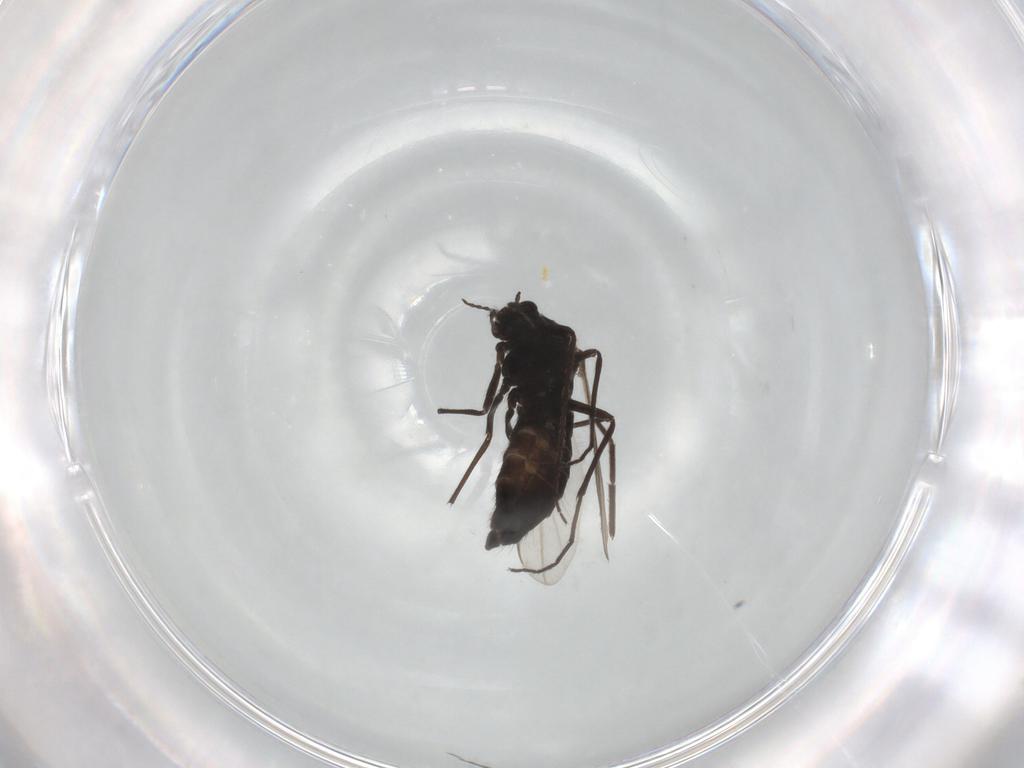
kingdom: Animalia
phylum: Arthropoda
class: Insecta
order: Diptera
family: Chironomidae
